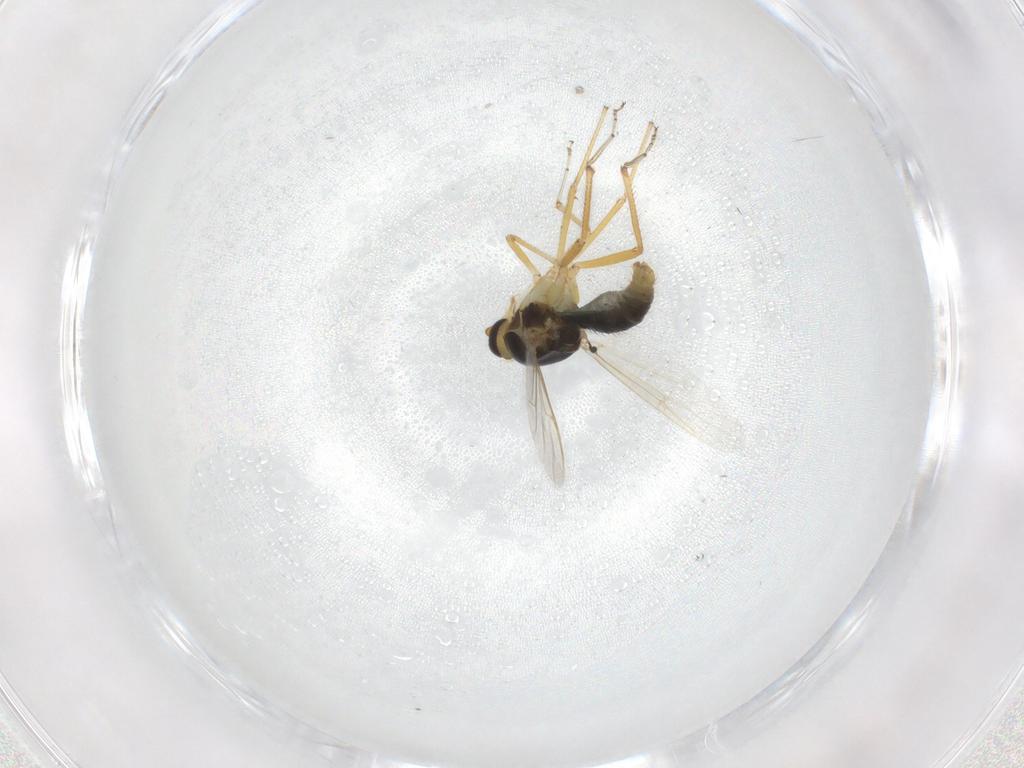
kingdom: Animalia
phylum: Arthropoda
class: Insecta
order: Diptera
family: Ceratopogonidae
